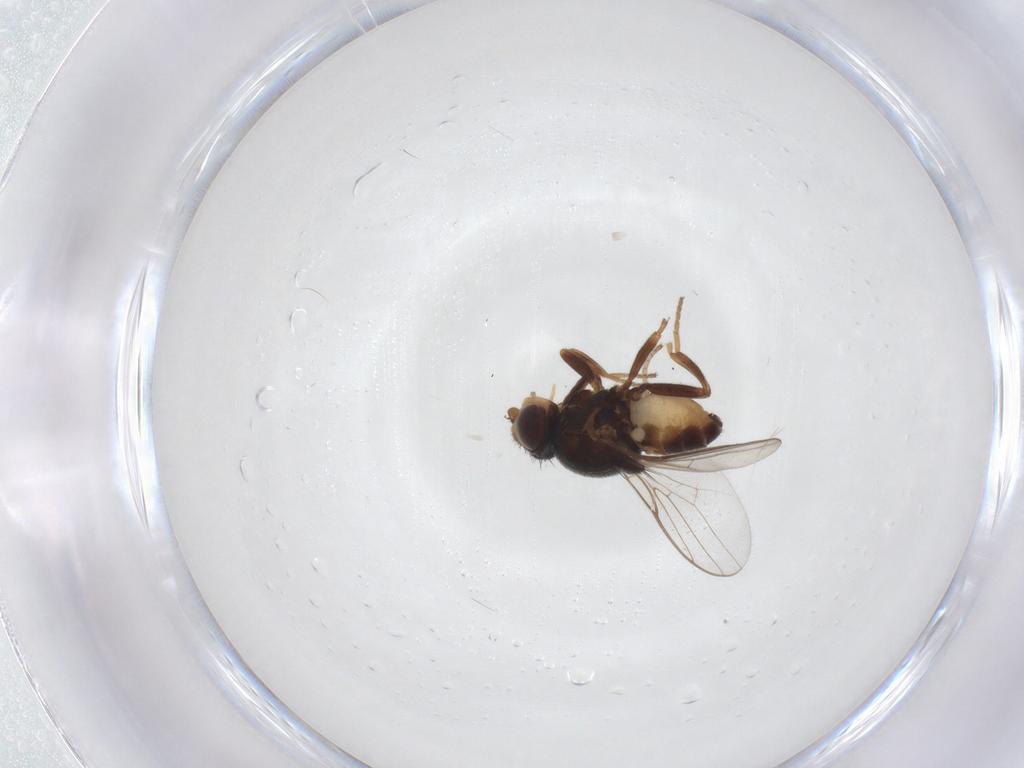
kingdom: Animalia
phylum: Arthropoda
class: Insecta
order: Diptera
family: Chloropidae
